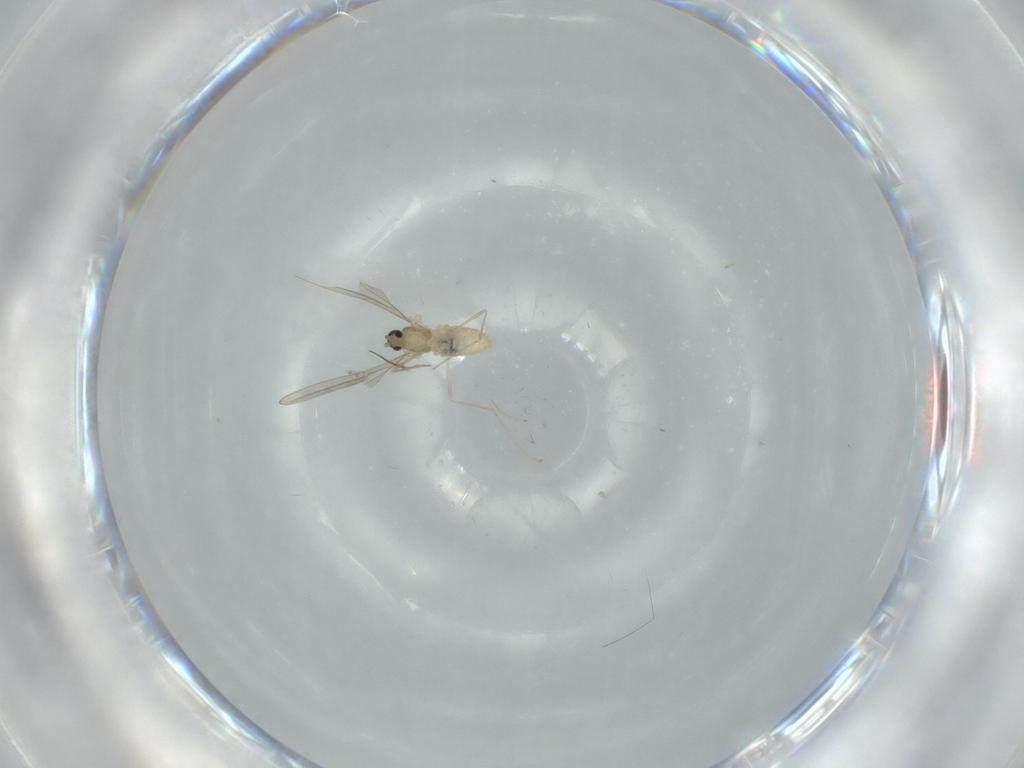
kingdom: Animalia
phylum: Arthropoda
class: Insecta
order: Diptera
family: Cecidomyiidae
